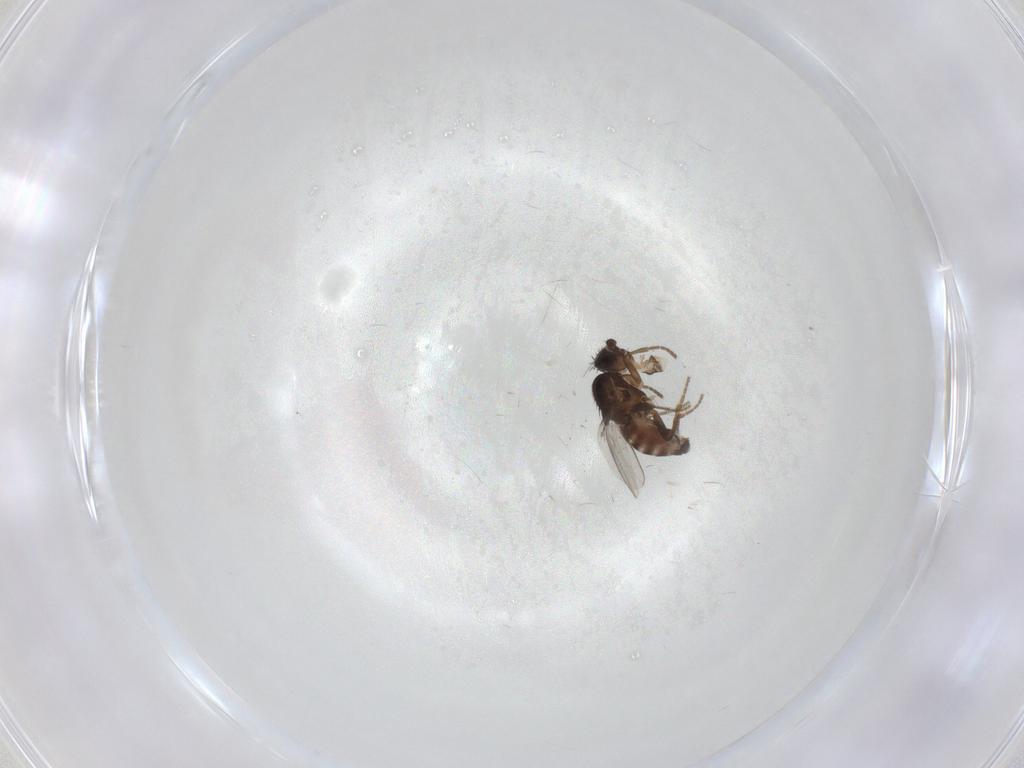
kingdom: Animalia
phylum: Arthropoda
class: Insecta
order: Diptera
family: Sphaeroceridae
